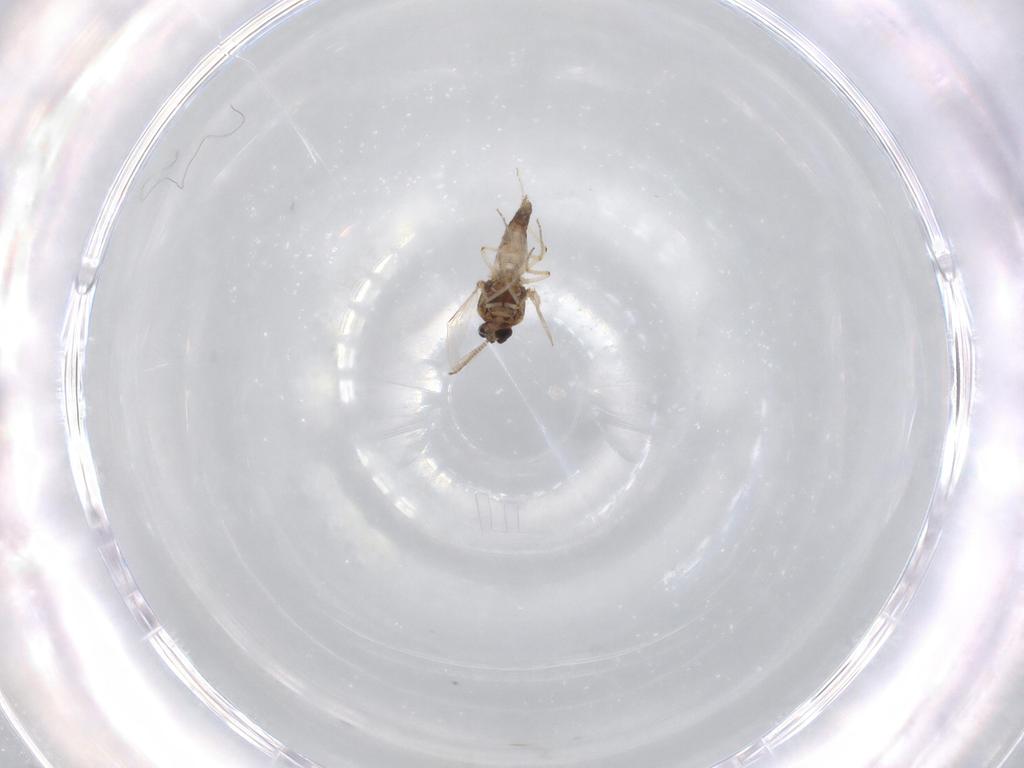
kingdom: Animalia
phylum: Arthropoda
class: Insecta
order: Diptera
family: Ceratopogonidae
